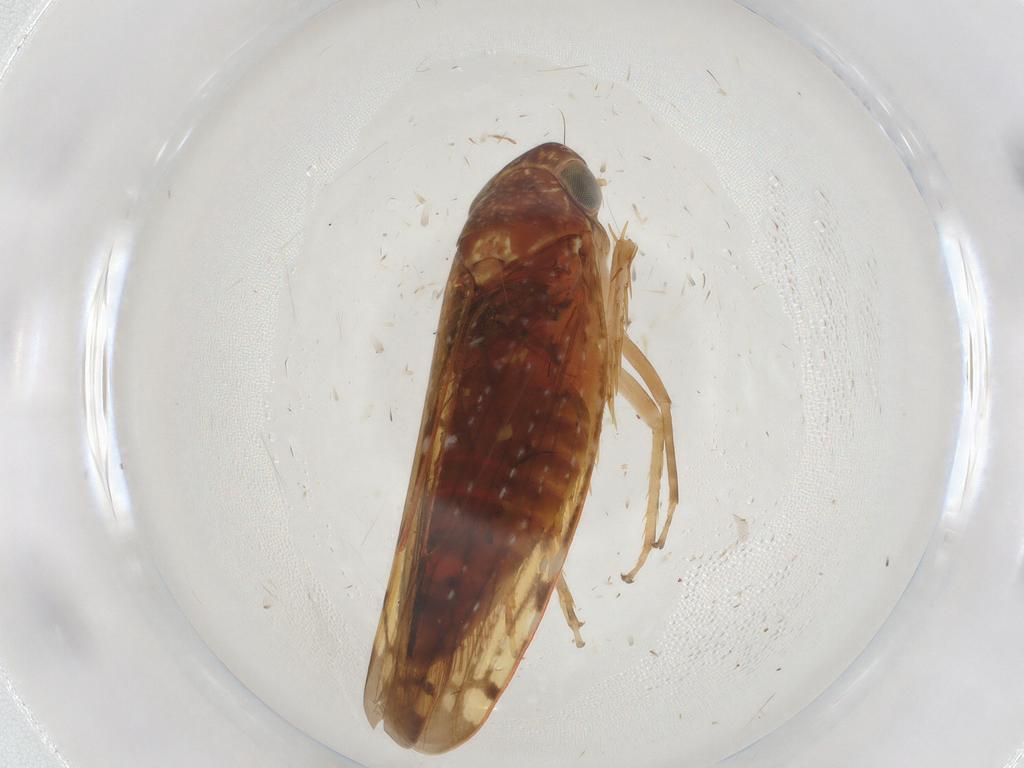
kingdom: Animalia
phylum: Arthropoda
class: Insecta
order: Hemiptera
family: Cicadellidae
